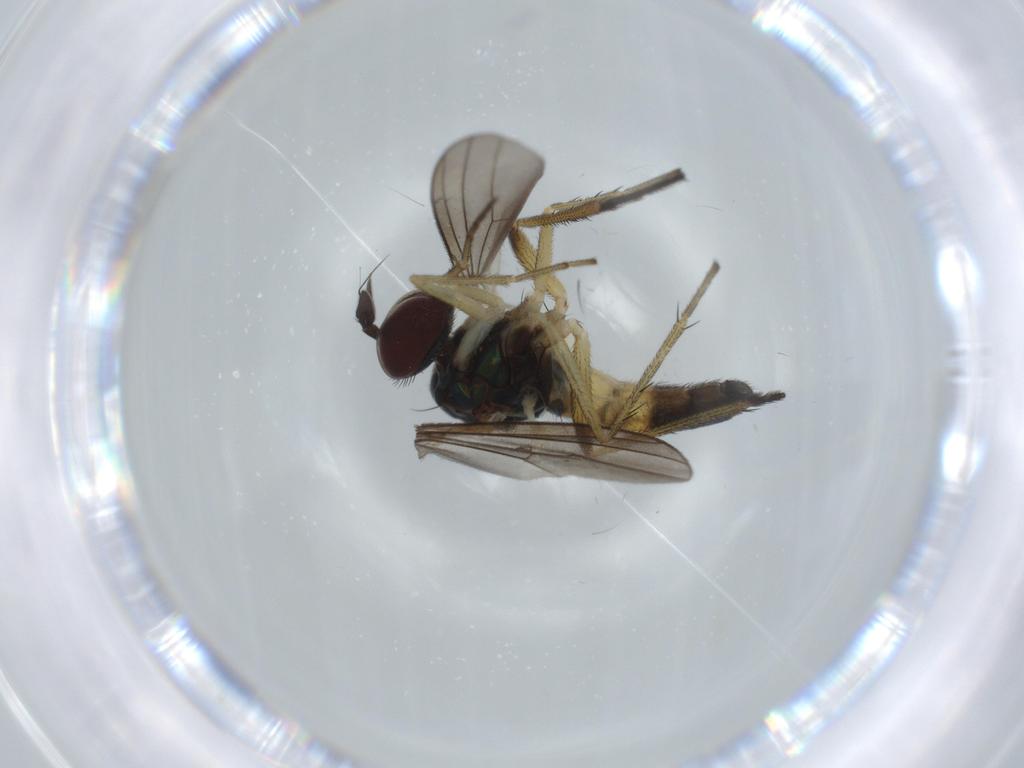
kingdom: Animalia
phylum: Arthropoda
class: Insecta
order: Diptera
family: Dolichopodidae
